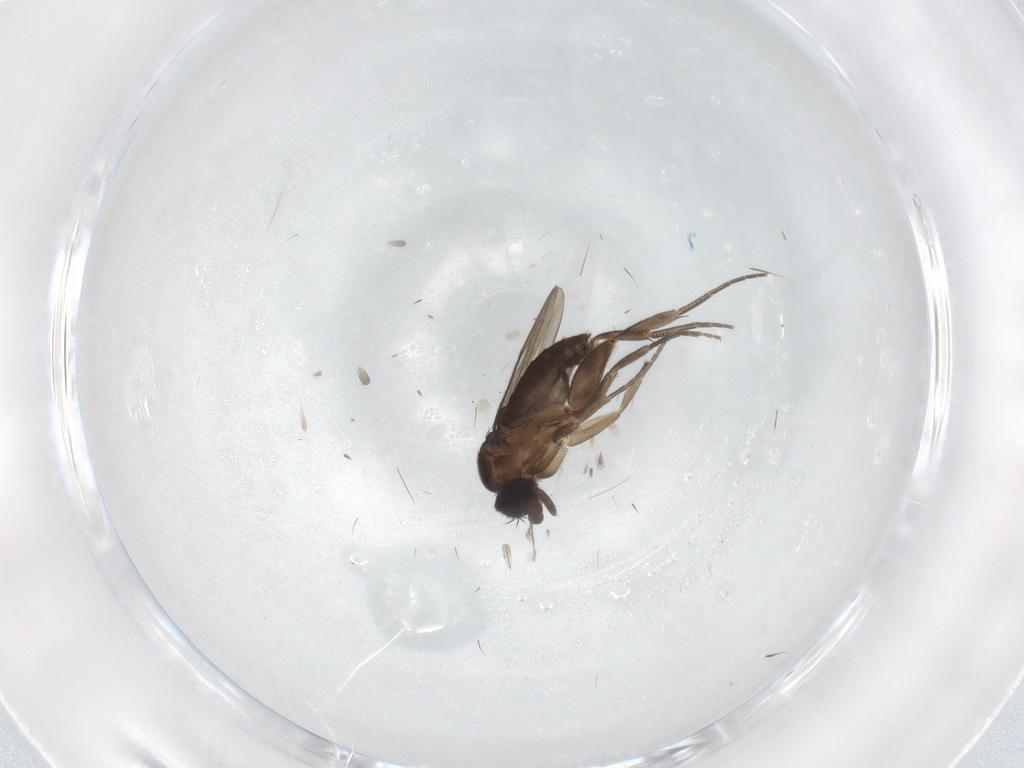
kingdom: Animalia
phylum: Arthropoda
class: Insecta
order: Diptera
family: Phoridae
